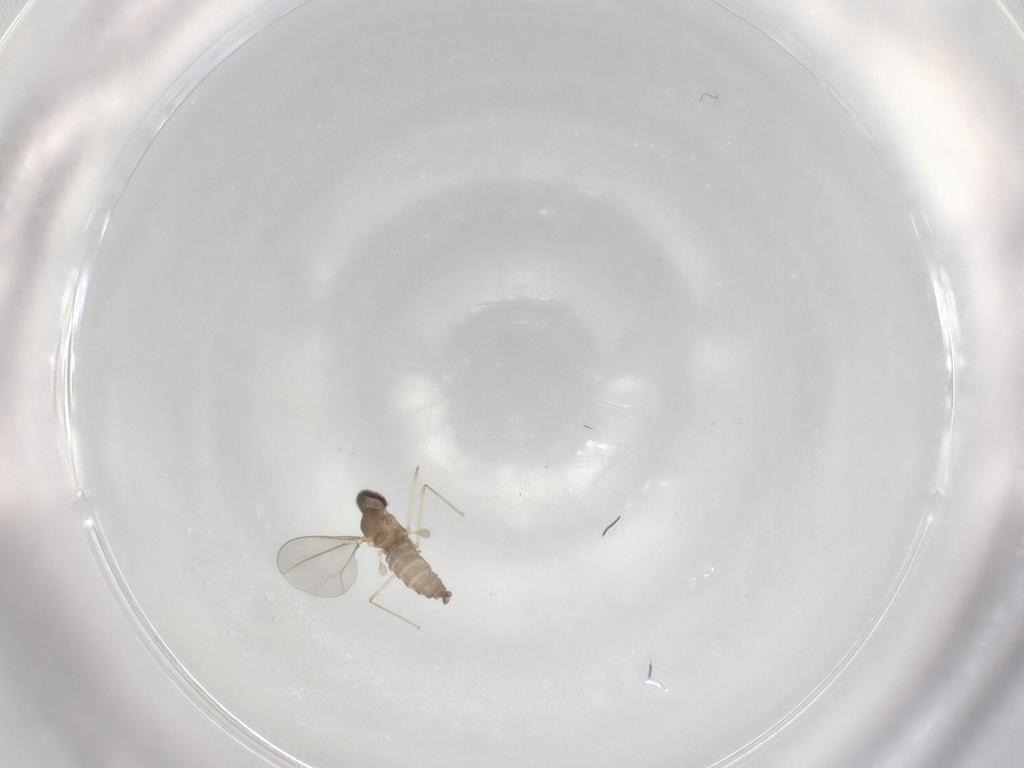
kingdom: Animalia
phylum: Arthropoda
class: Insecta
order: Diptera
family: Cecidomyiidae
